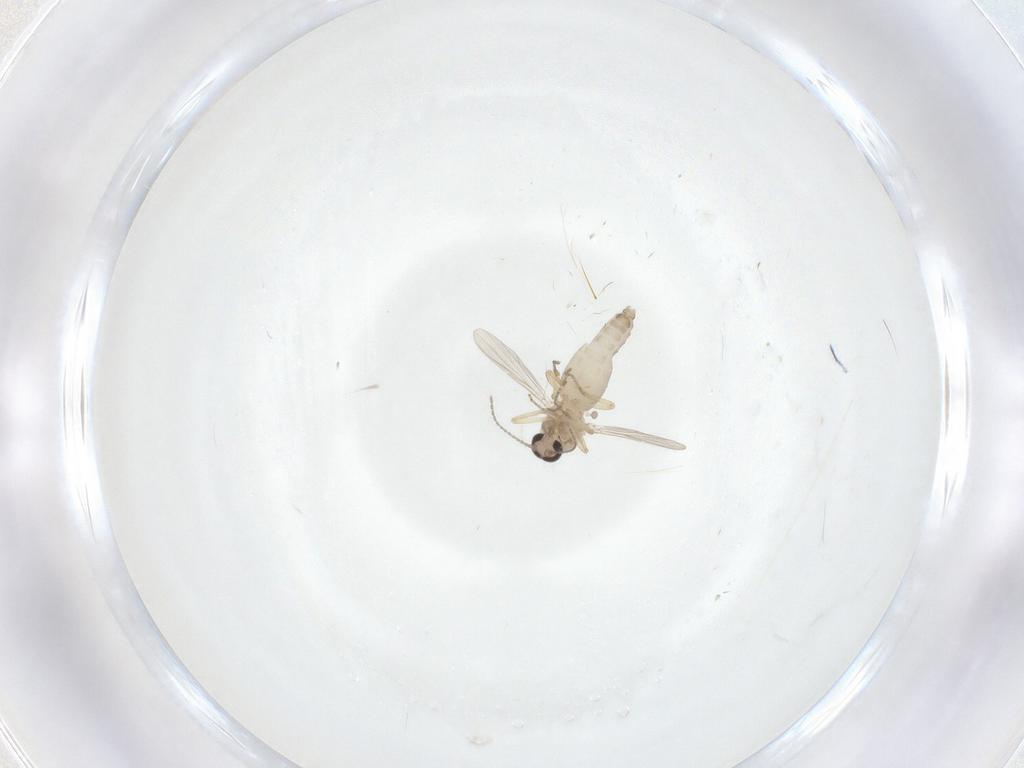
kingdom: Animalia
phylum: Arthropoda
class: Insecta
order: Diptera
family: Ceratopogonidae
